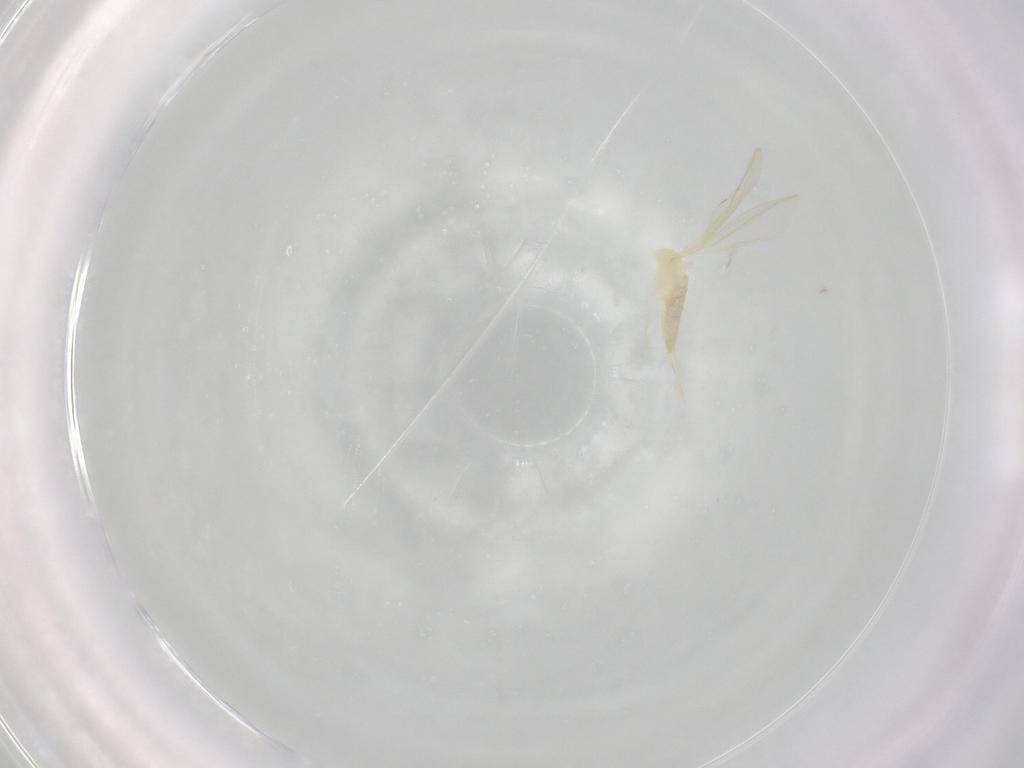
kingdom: Animalia
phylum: Arthropoda
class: Insecta
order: Diptera
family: Cecidomyiidae
